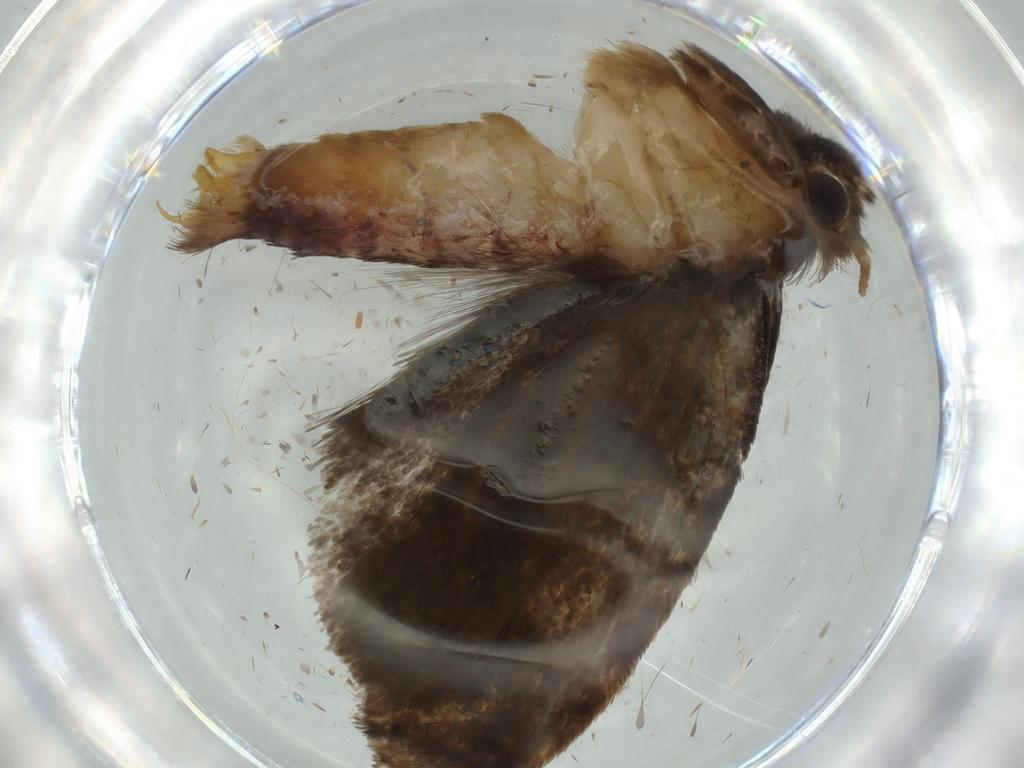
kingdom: Animalia
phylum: Arthropoda
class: Insecta
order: Lepidoptera
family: Tineidae
